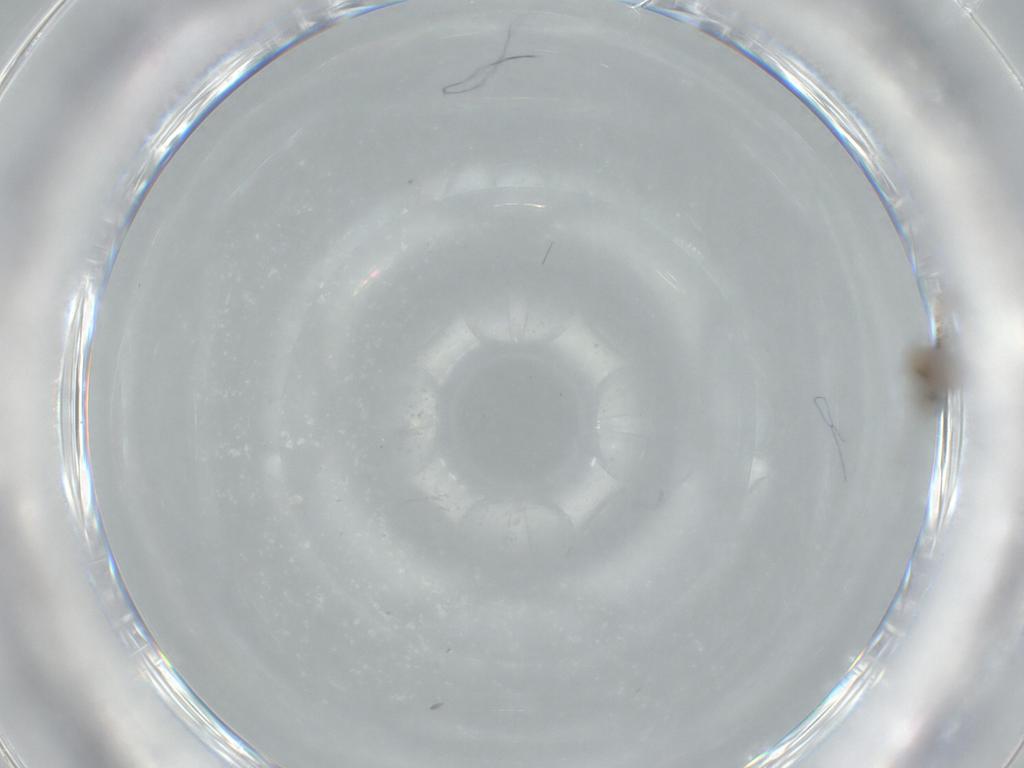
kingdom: Animalia
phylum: Arthropoda
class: Insecta
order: Diptera
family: Cecidomyiidae
